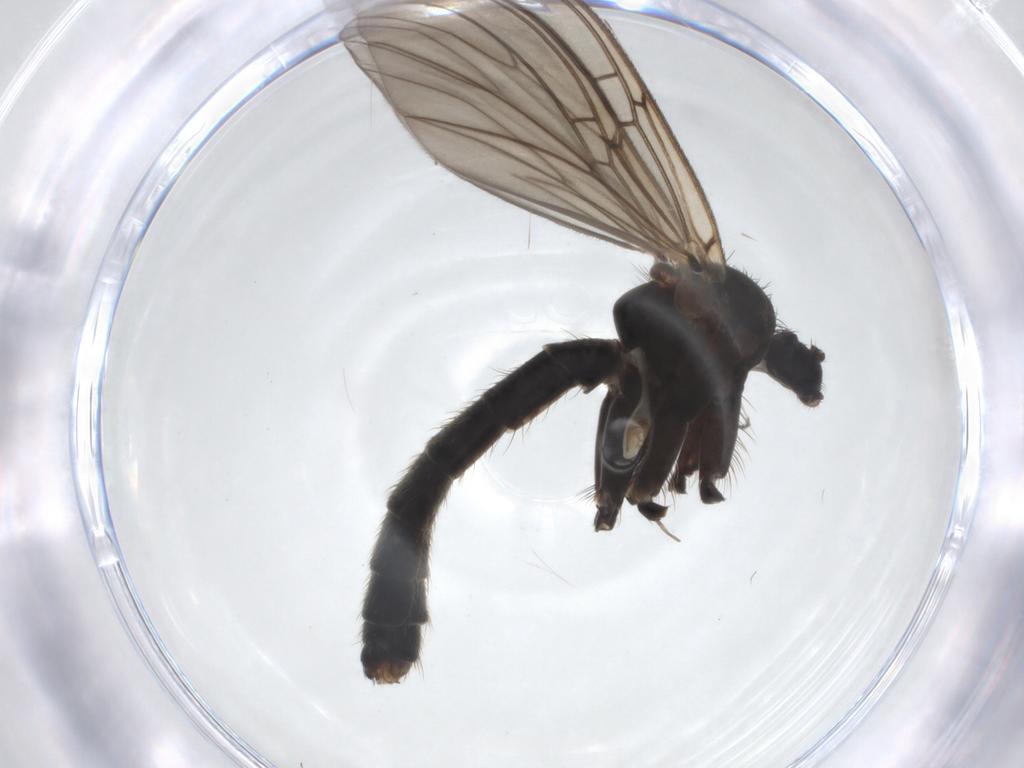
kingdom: Animalia
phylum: Arthropoda
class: Insecta
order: Diptera
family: Mycetophilidae
